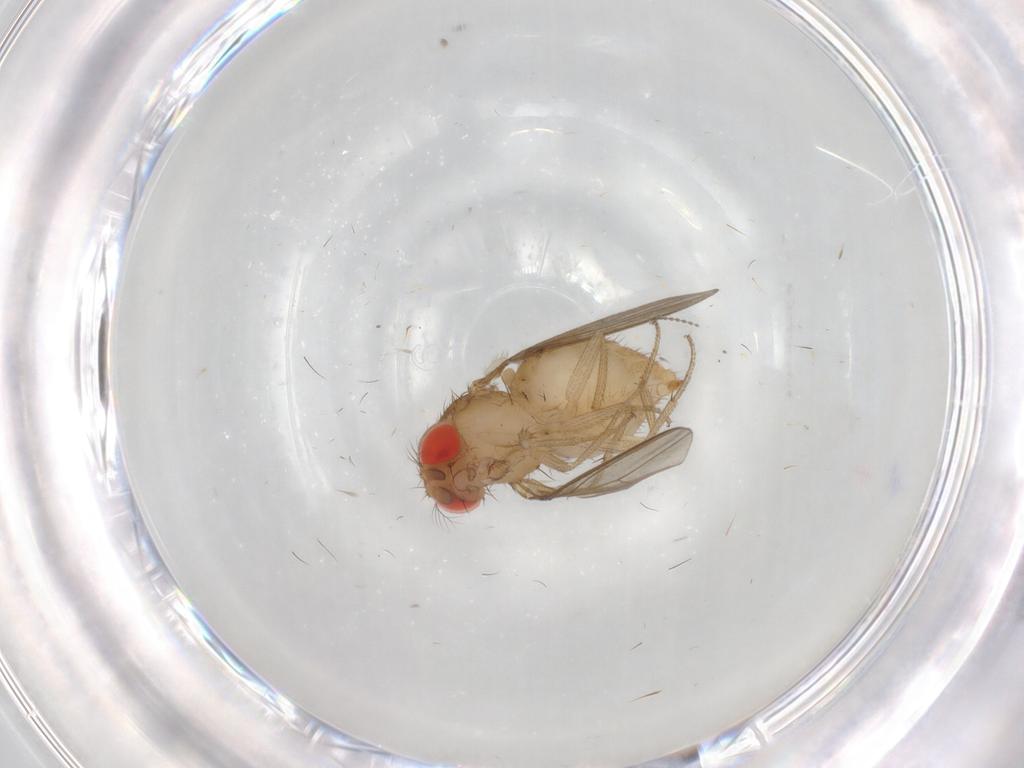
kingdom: Animalia
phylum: Arthropoda
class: Insecta
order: Diptera
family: Drosophilidae
